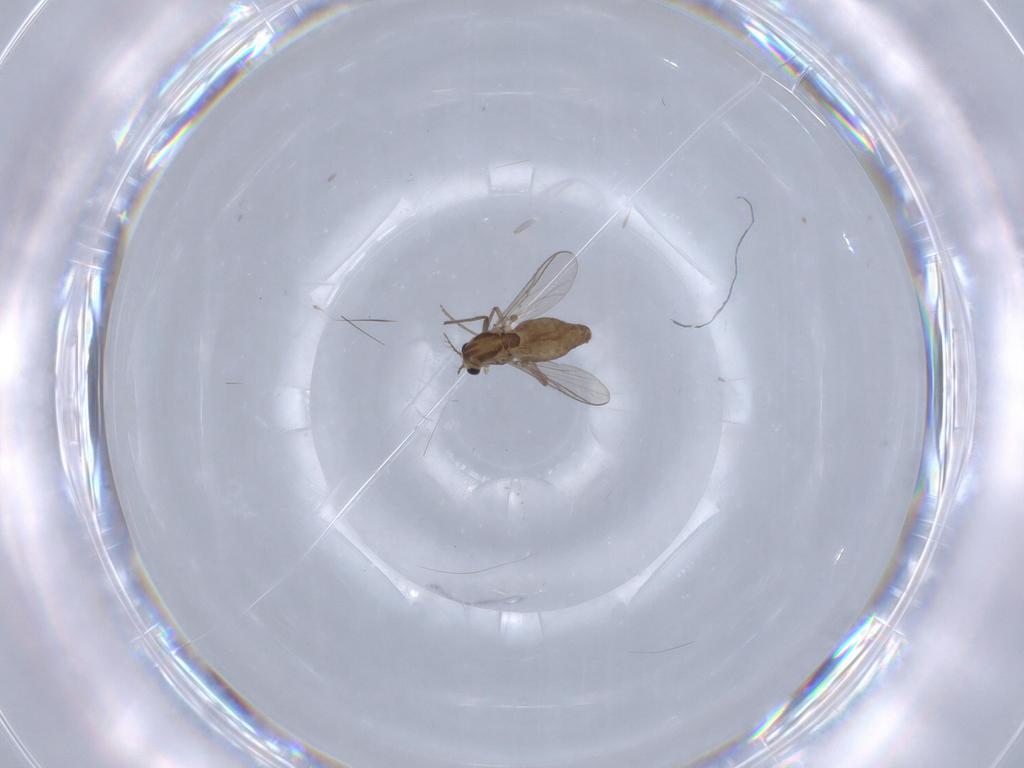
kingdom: Animalia
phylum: Arthropoda
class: Insecta
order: Diptera
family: Chironomidae
